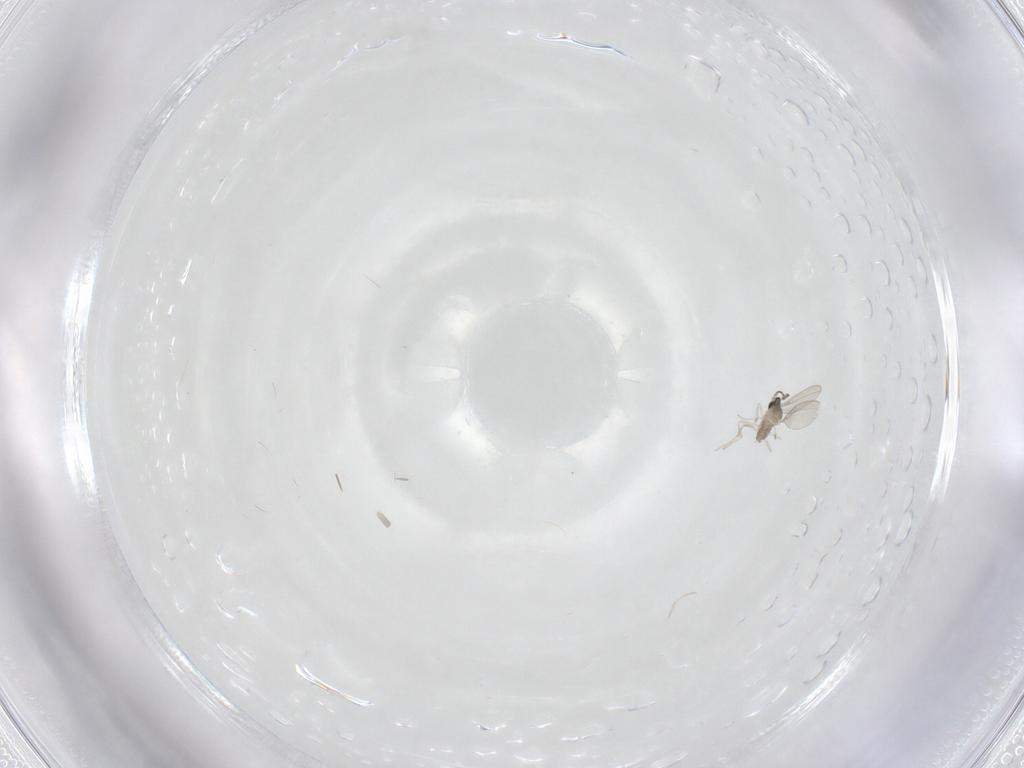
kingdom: Animalia
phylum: Arthropoda
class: Insecta
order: Diptera
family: Cecidomyiidae
